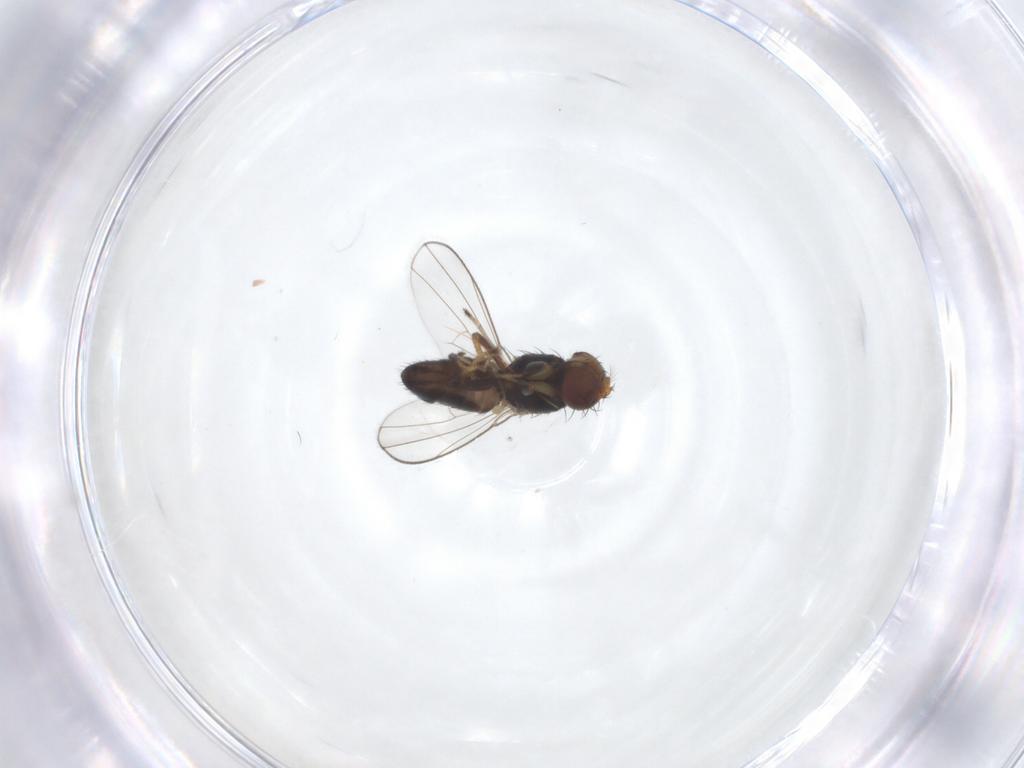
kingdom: Animalia
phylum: Arthropoda
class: Insecta
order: Diptera
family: Ephydridae
